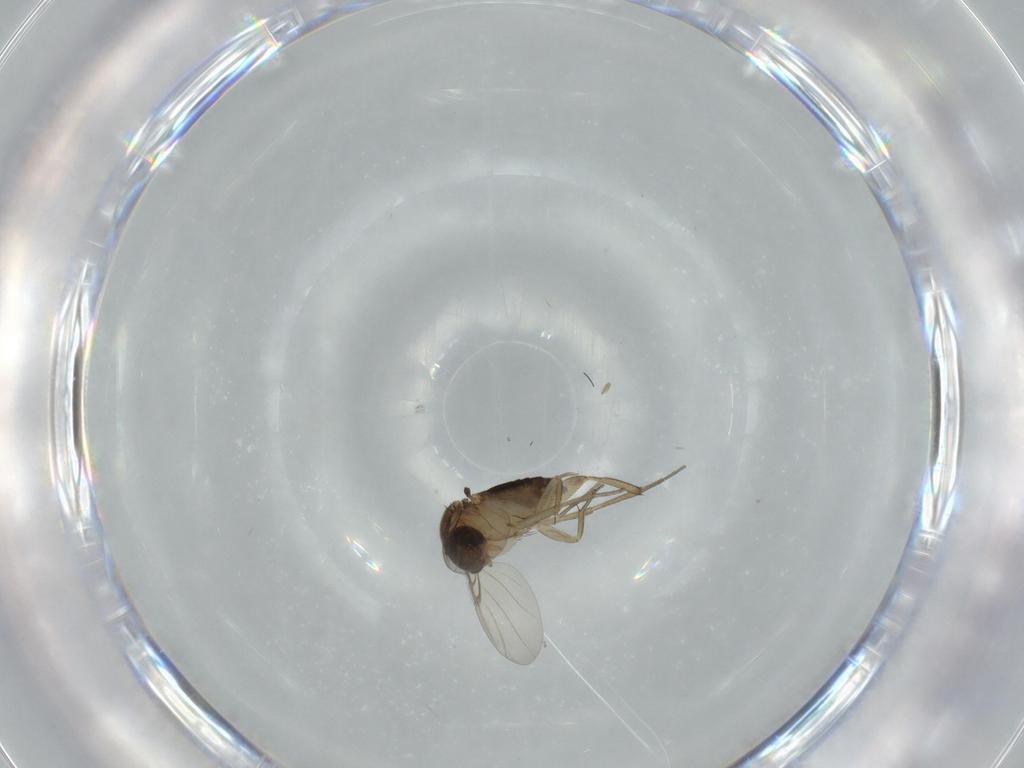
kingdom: Animalia
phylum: Arthropoda
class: Insecta
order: Diptera
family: Phoridae
